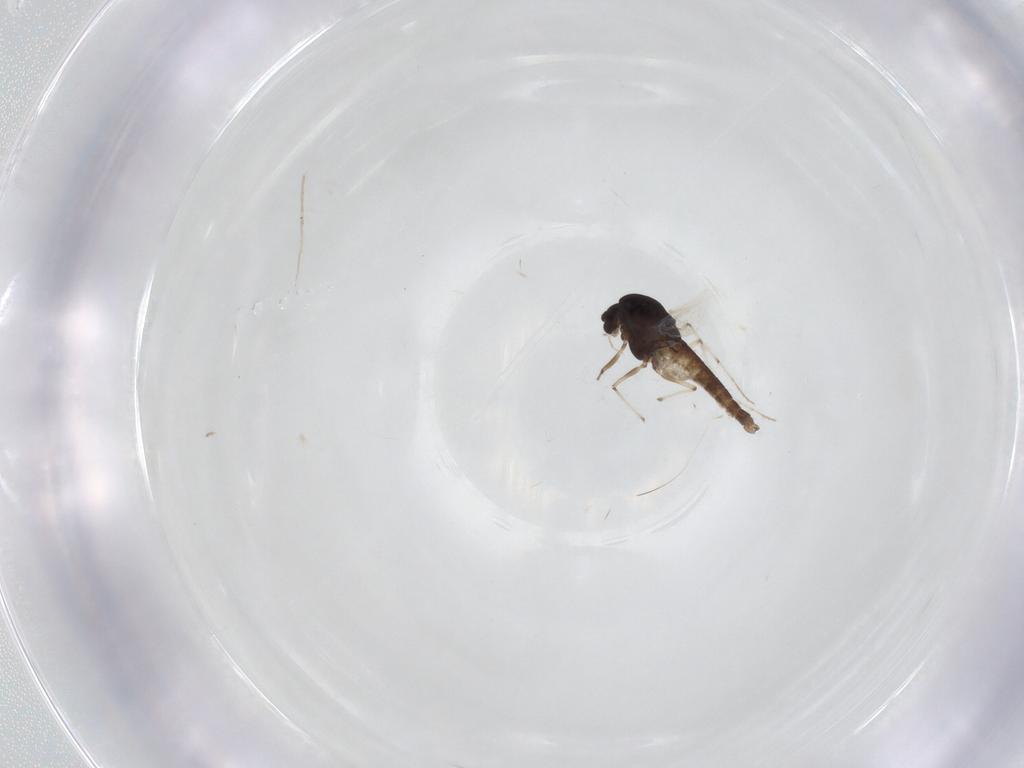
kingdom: Animalia
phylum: Arthropoda
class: Insecta
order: Diptera
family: Chironomidae
